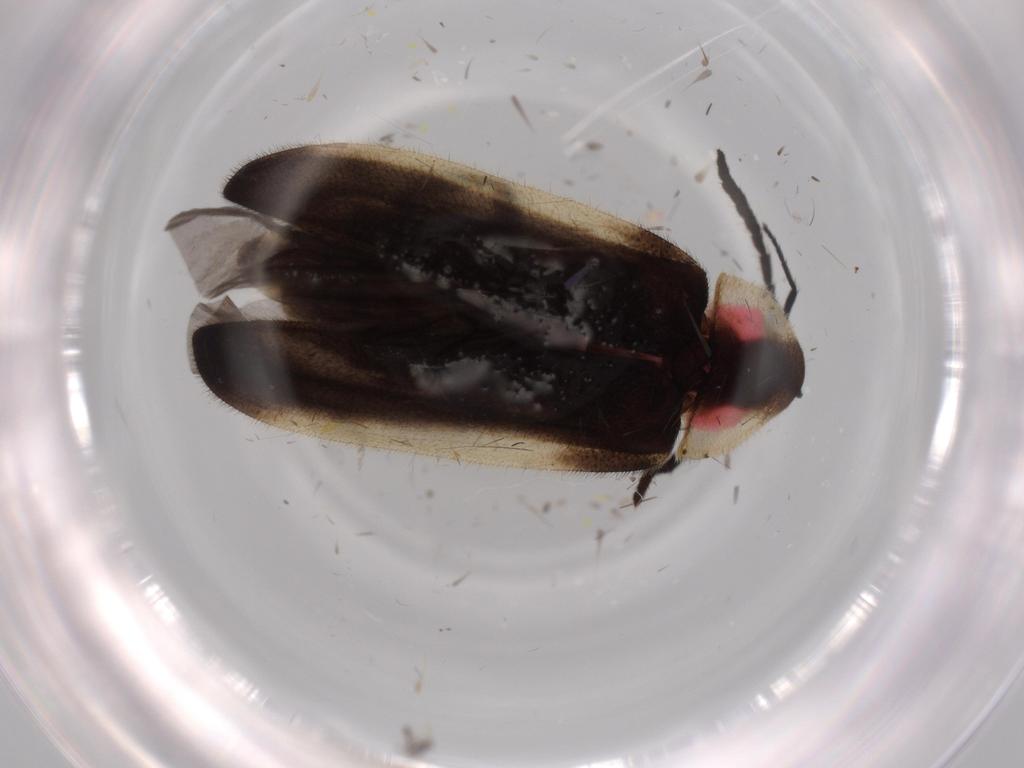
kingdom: Animalia
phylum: Arthropoda
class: Insecta
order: Coleoptera
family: Lampyridae
